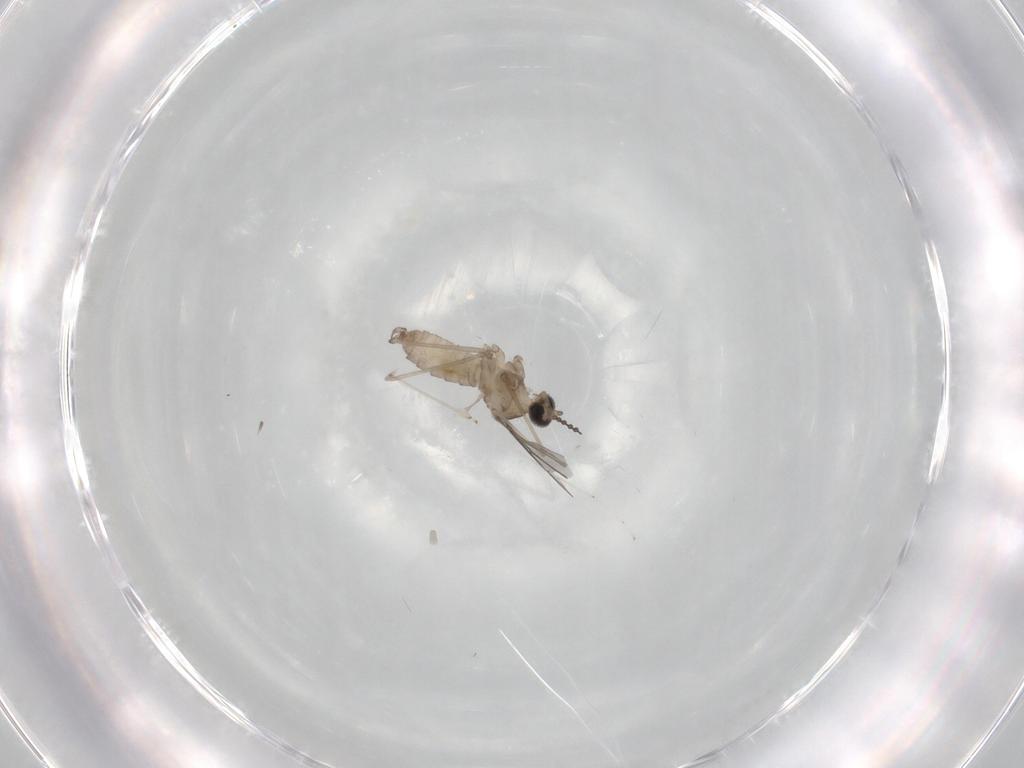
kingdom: Animalia
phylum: Arthropoda
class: Insecta
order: Diptera
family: Cecidomyiidae
